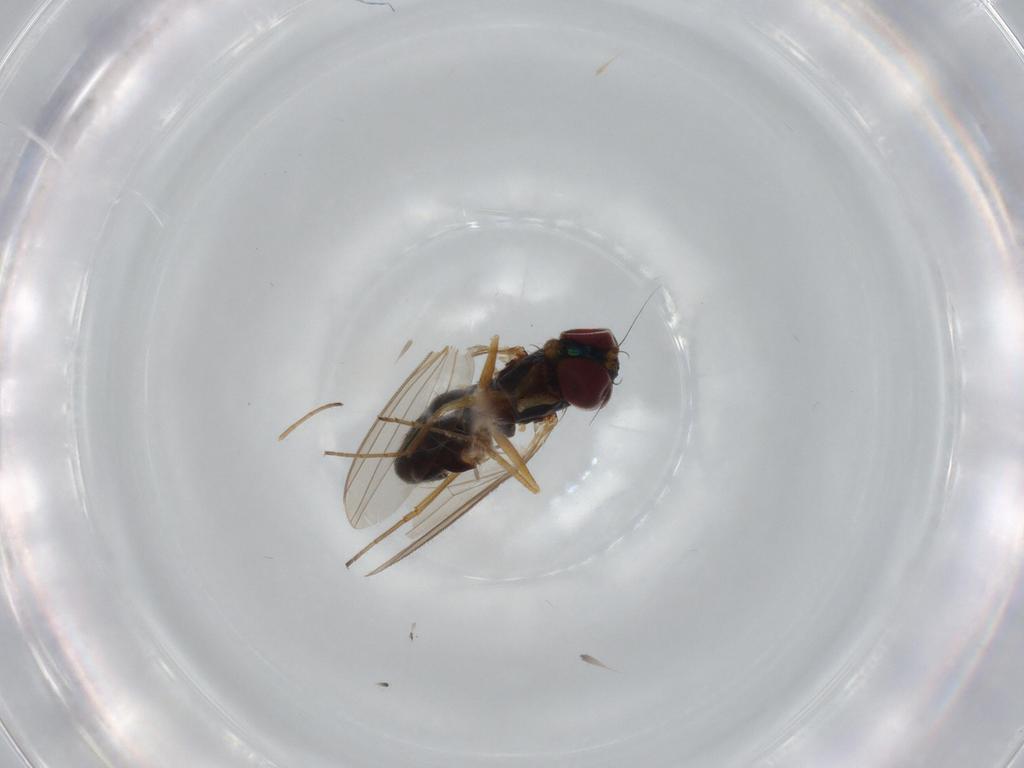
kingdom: Animalia
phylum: Arthropoda
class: Insecta
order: Diptera
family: Dolichopodidae
